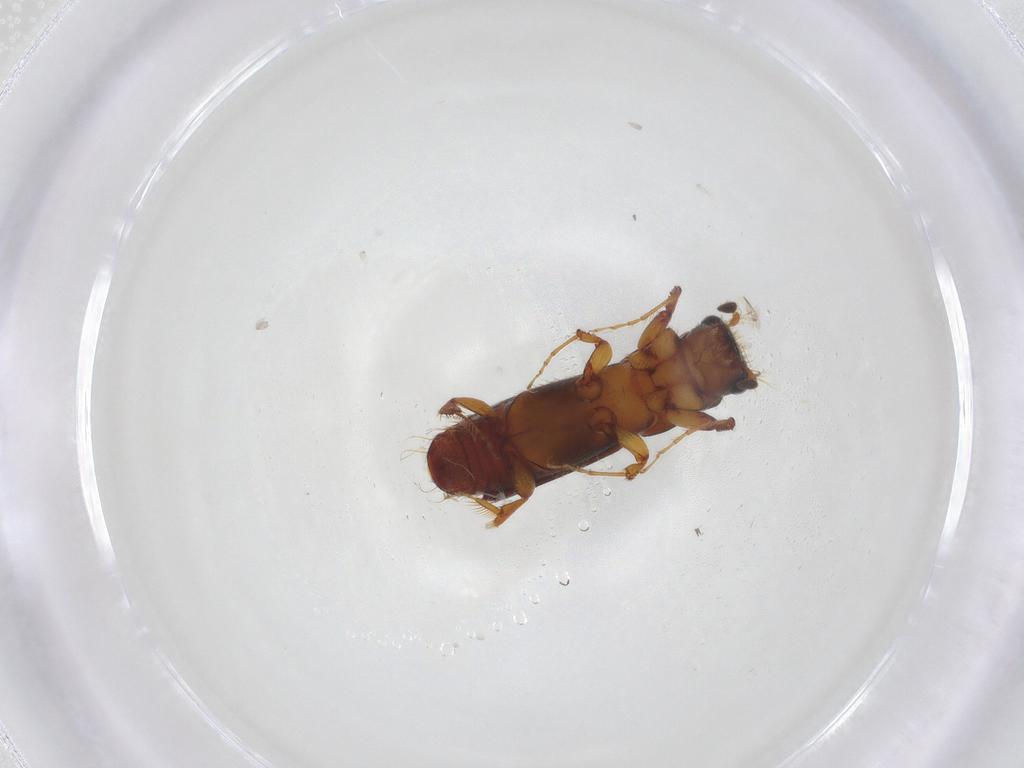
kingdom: Animalia
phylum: Arthropoda
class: Insecta
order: Coleoptera
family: Curculionidae
